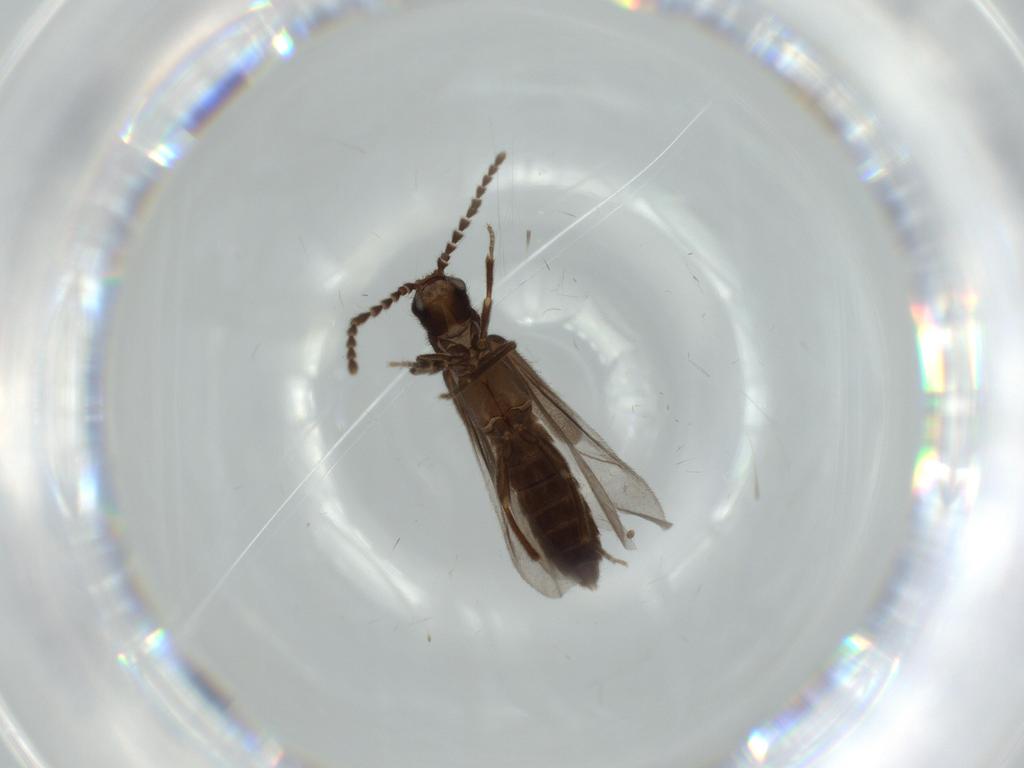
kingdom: Animalia
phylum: Arthropoda
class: Insecta
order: Coleoptera
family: Omethidae
